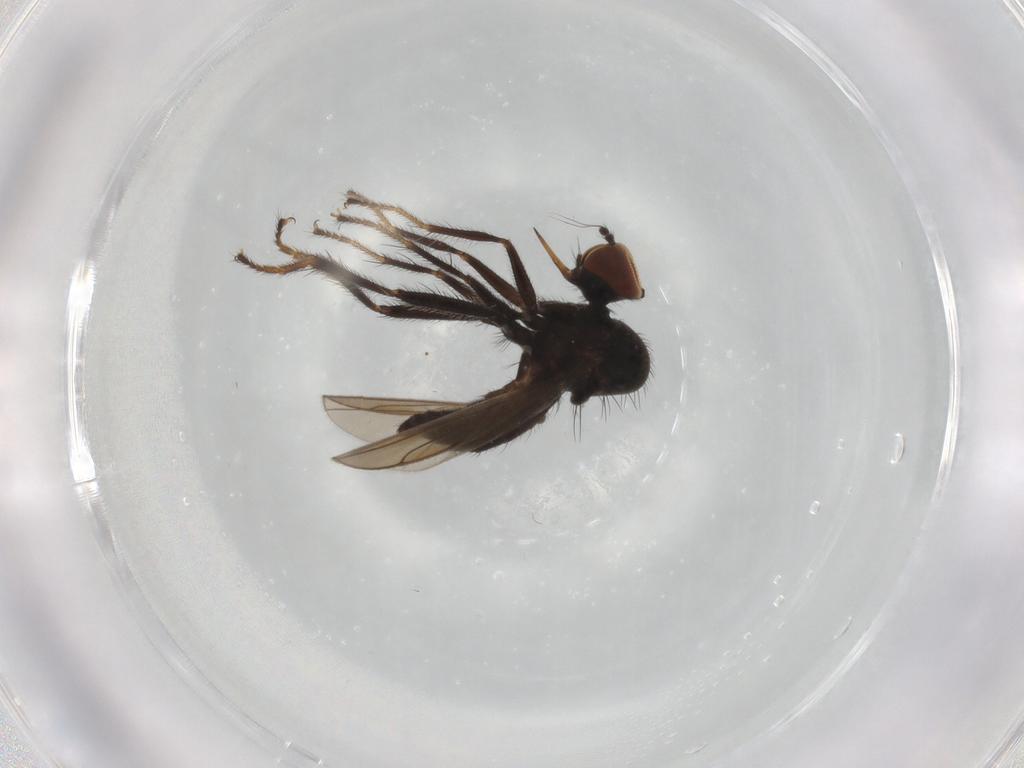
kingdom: Animalia
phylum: Arthropoda
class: Insecta
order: Diptera
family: Hybotidae
